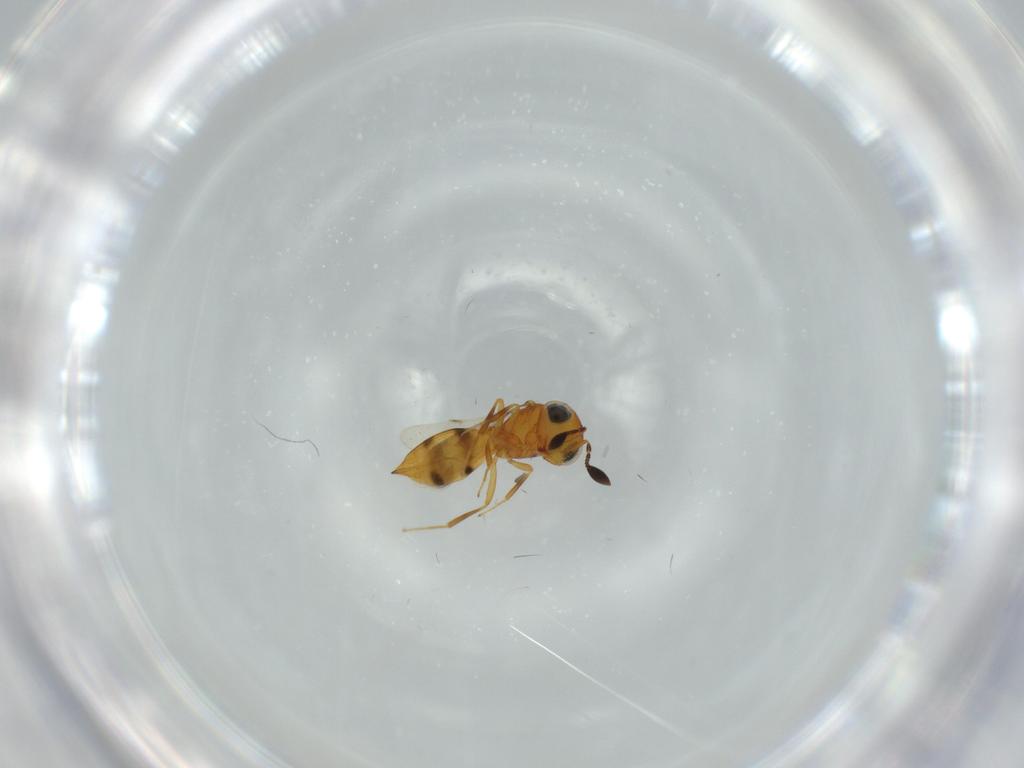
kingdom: Animalia
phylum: Arthropoda
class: Insecta
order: Hymenoptera
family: Scelionidae
